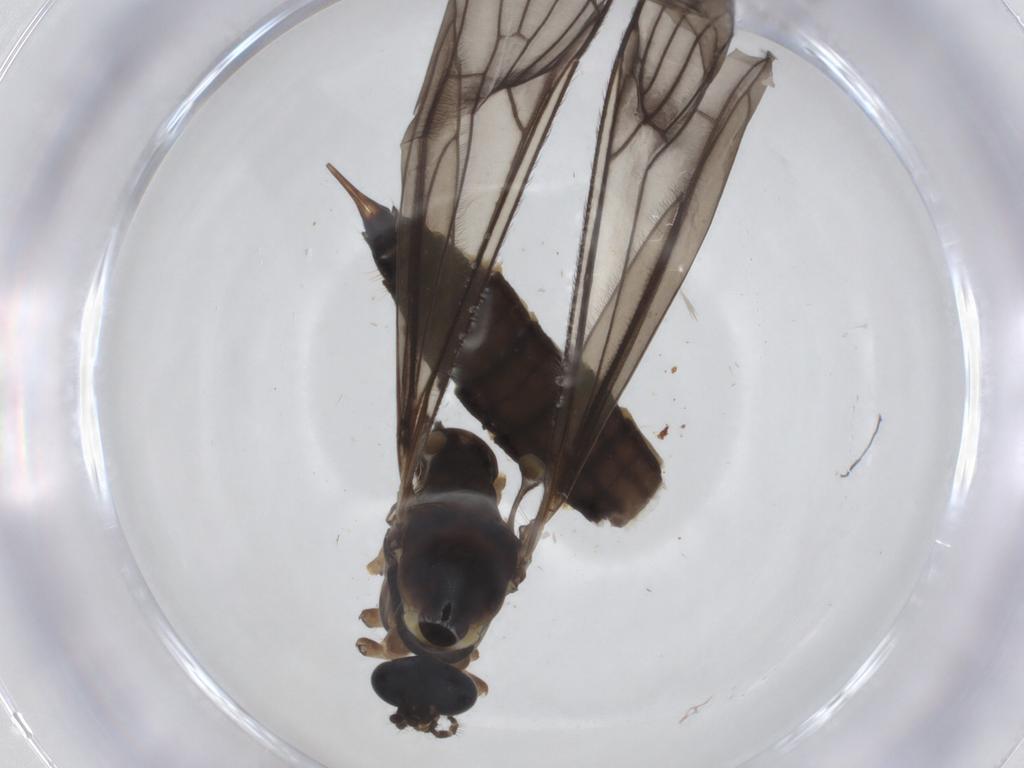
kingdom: Animalia
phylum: Arthropoda
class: Insecta
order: Diptera
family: Limoniidae
